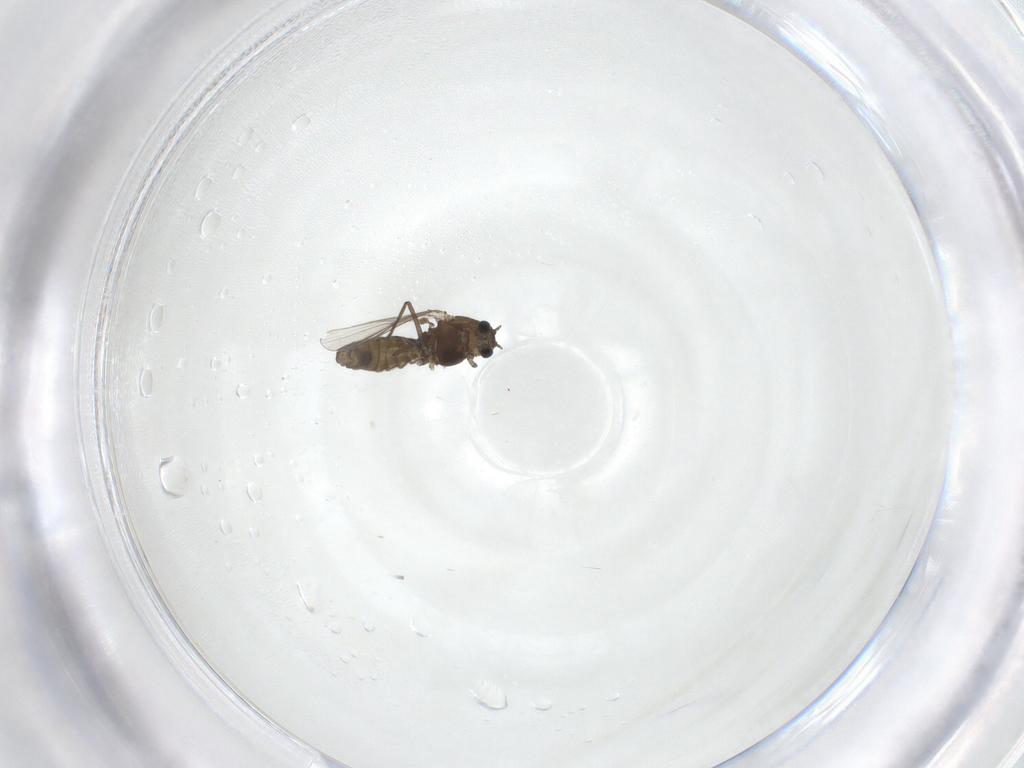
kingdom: Animalia
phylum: Arthropoda
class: Insecta
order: Diptera
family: Chironomidae
